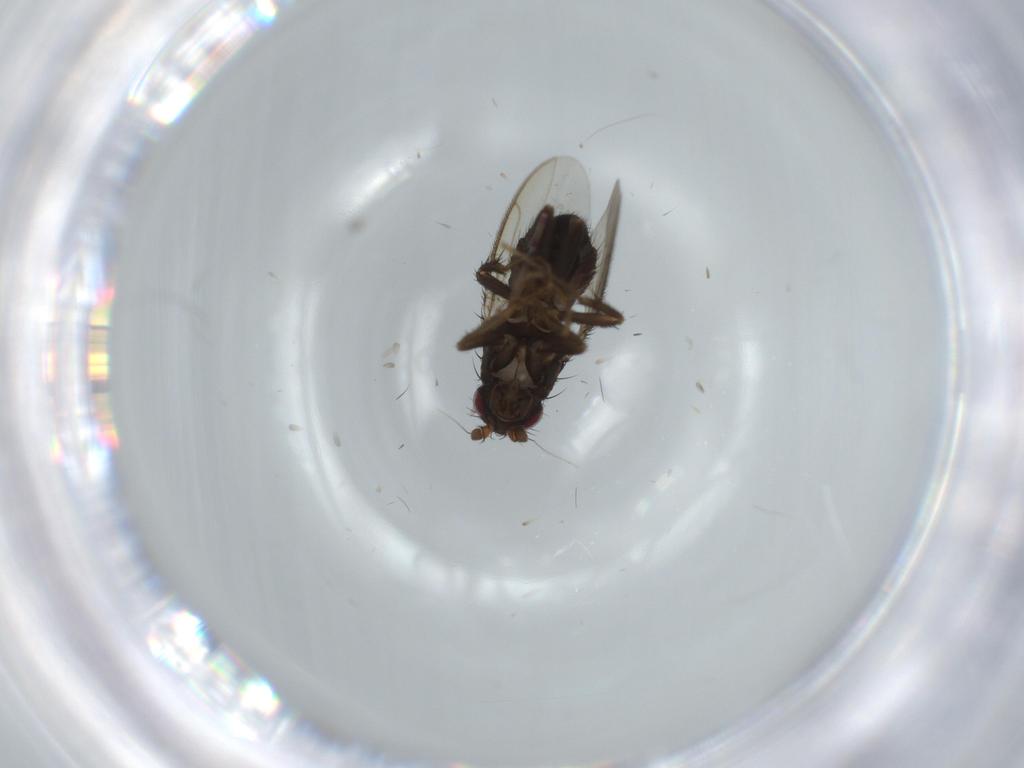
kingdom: Animalia
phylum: Arthropoda
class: Insecta
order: Diptera
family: Sphaeroceridae
